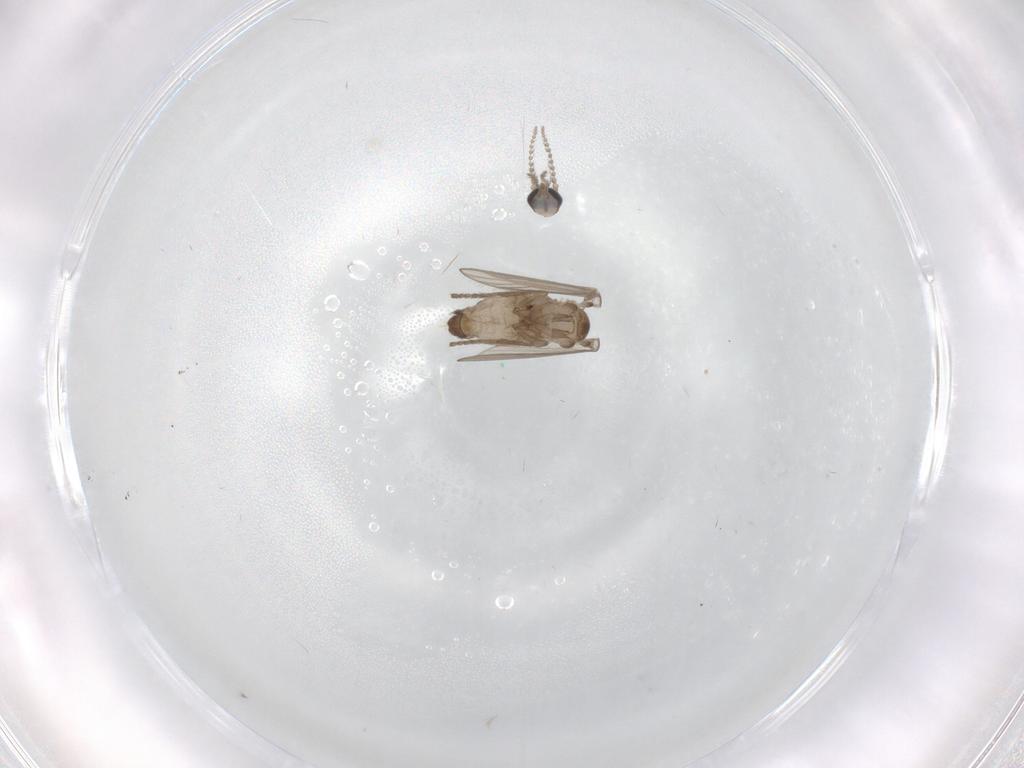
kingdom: Animalia
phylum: Arthropoda
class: Insecta
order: Diptera
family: Psychodidae
